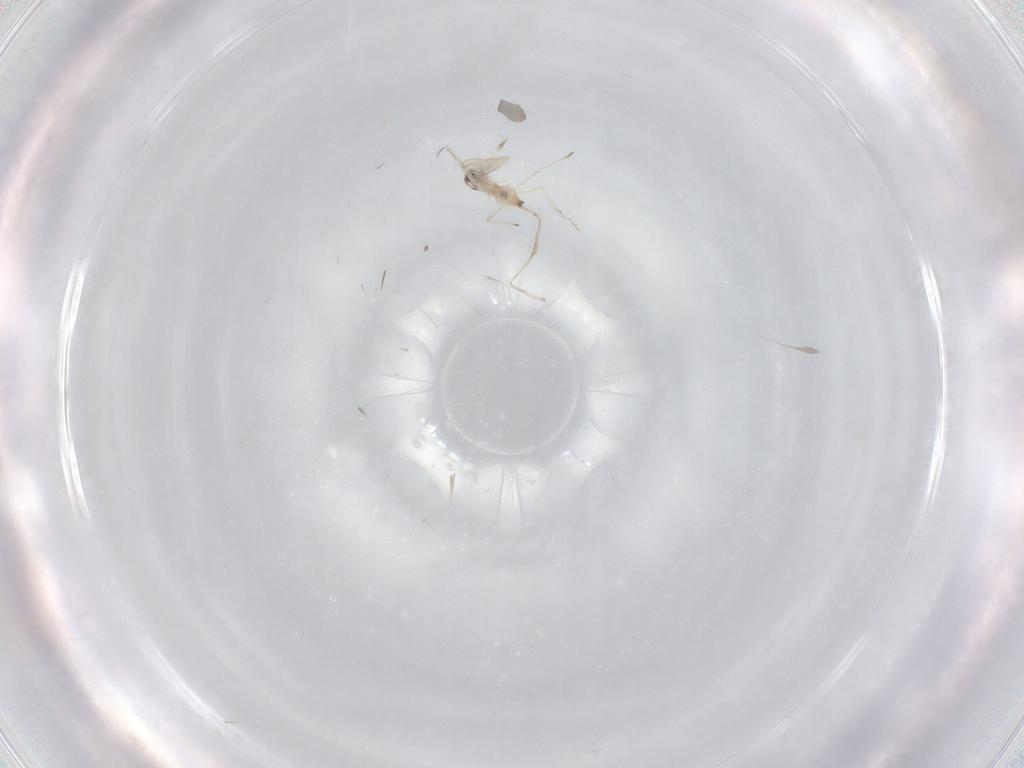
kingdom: Animalia
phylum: Arthropoda
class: Insecta
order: Diptera
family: Cecidomyiidae
